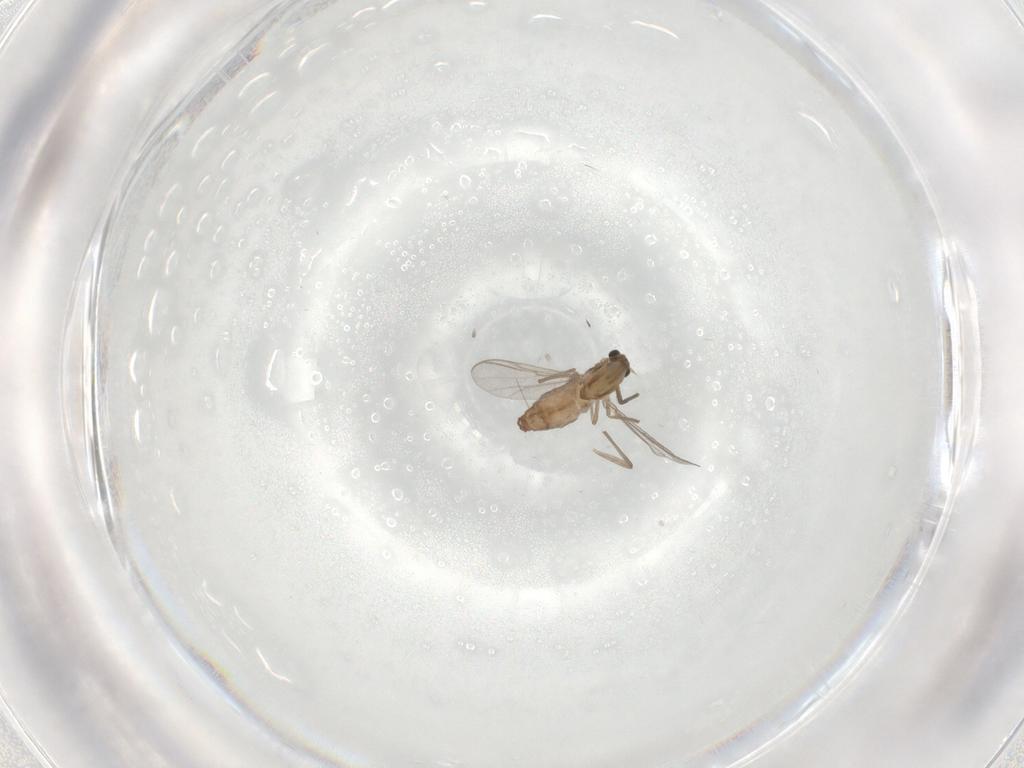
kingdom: Animalia
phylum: Arthropoda
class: Insecta
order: Diptera
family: Chironomidae
